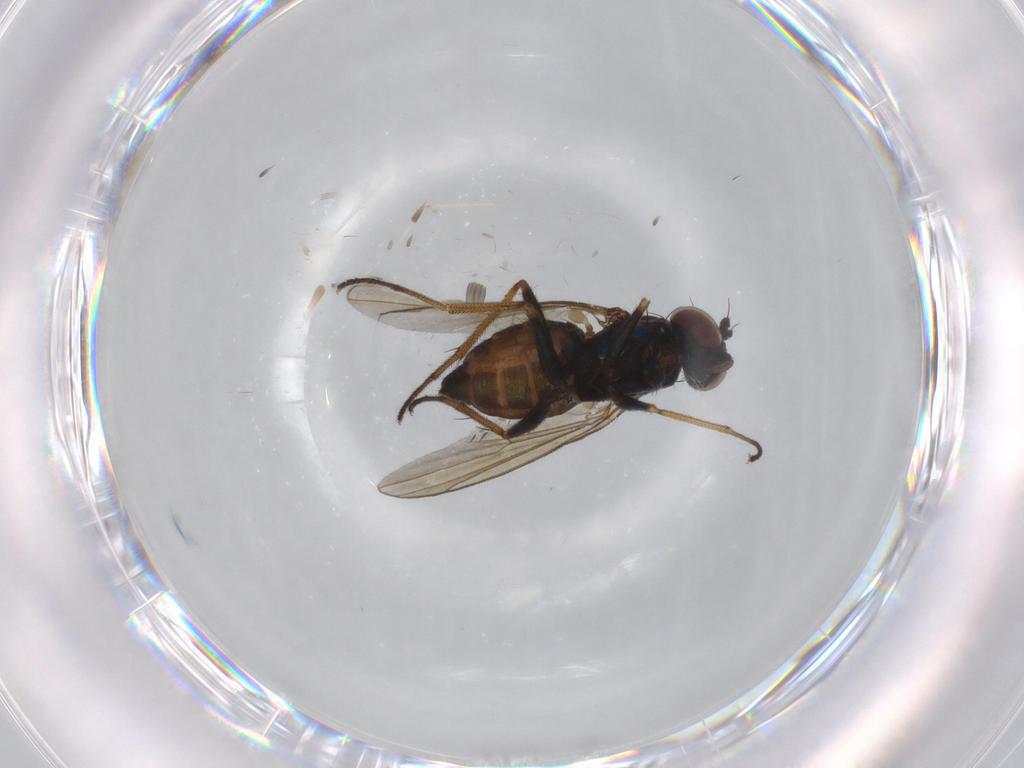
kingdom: Animalia
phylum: Arthropoda
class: Insecta
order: Diptera
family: Dolichopodidae
